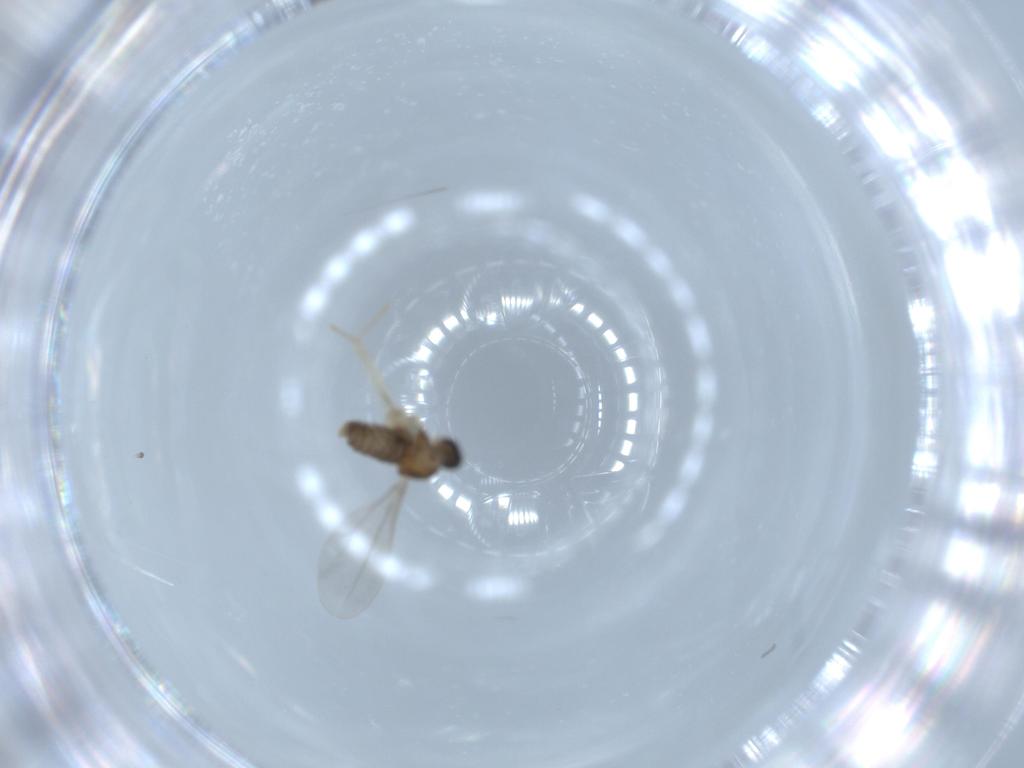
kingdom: Animalia
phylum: Arthropoda
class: Insecta
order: Diptera
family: Cecidomyiidae
